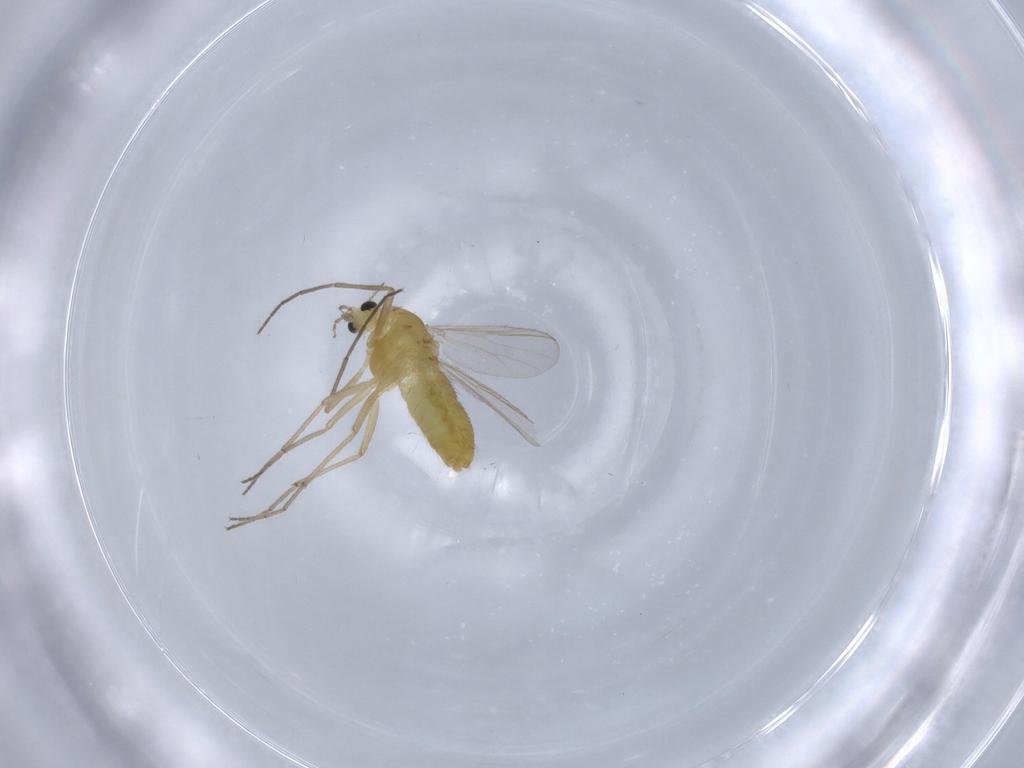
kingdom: Animalia
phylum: Arthropoda
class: Insecta
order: Diptera
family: Chironomidae
